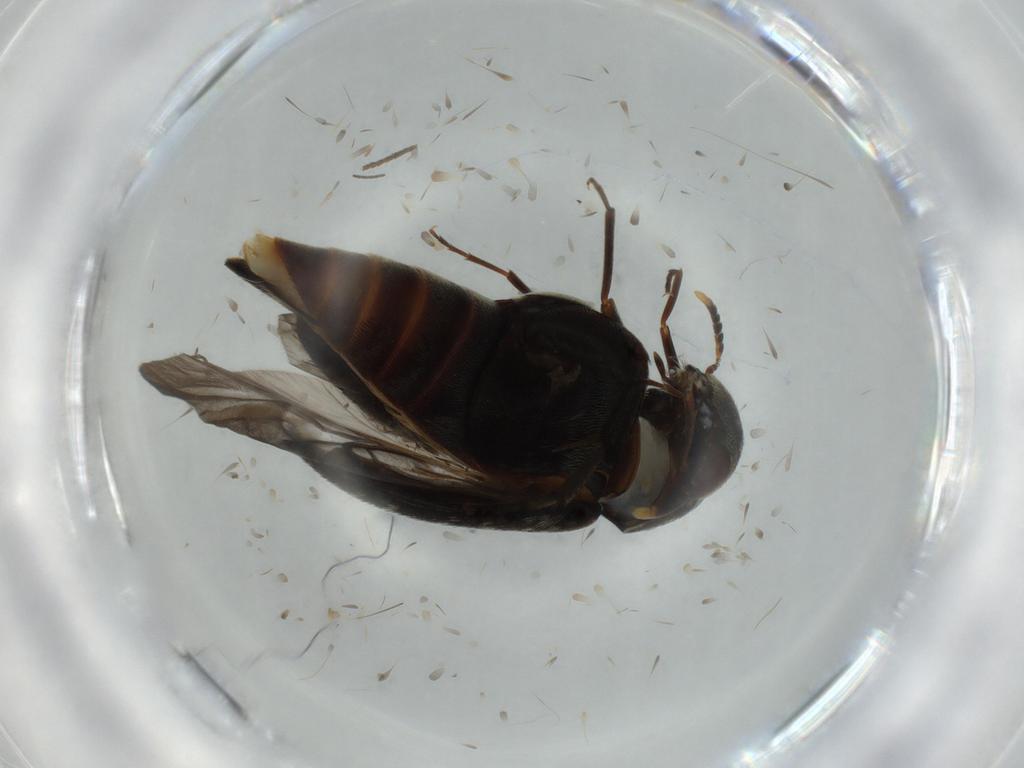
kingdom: Animalia
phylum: Arthropoda
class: Insecta
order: Coleoptera
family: Mordellidae
